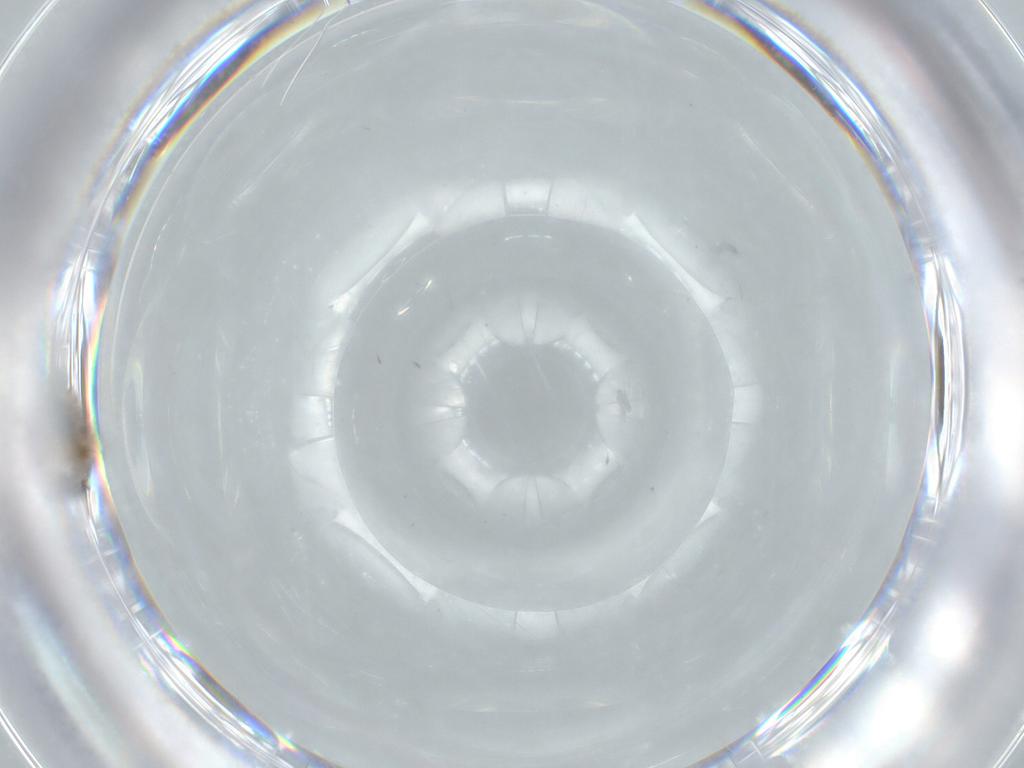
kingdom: Animalia
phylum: Arthropoda
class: Insecta
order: Diptera
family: Cecidomyiidae
